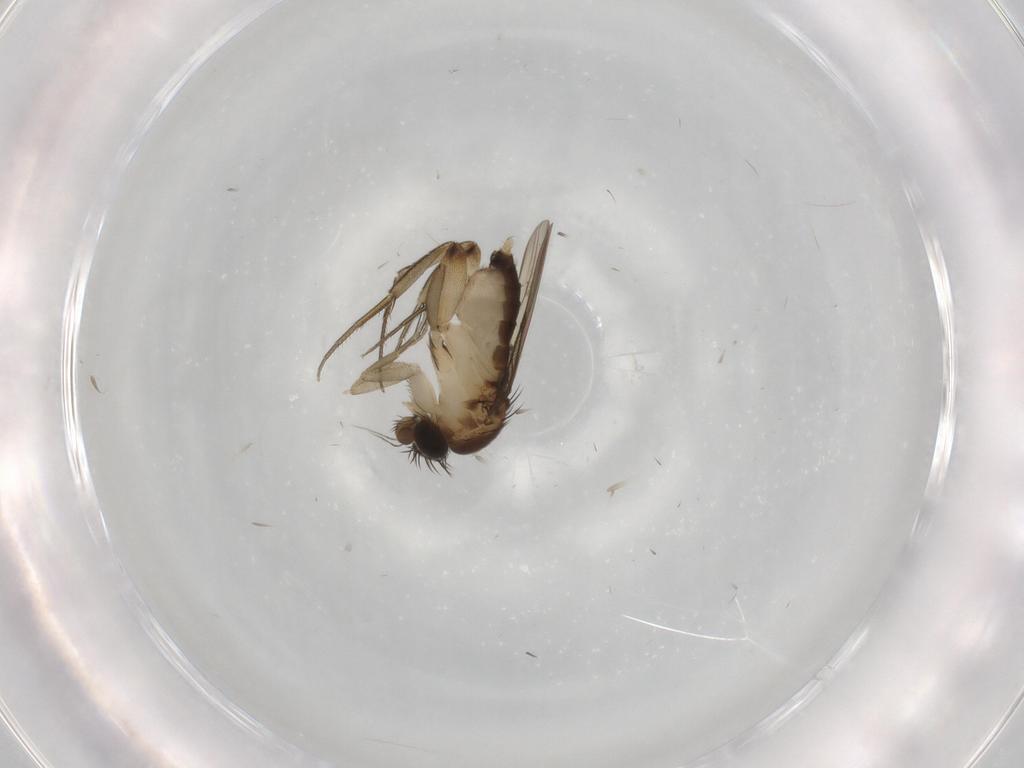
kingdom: Animalia
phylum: Arthropoda
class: Insecta
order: Diptera
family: Phoridae
